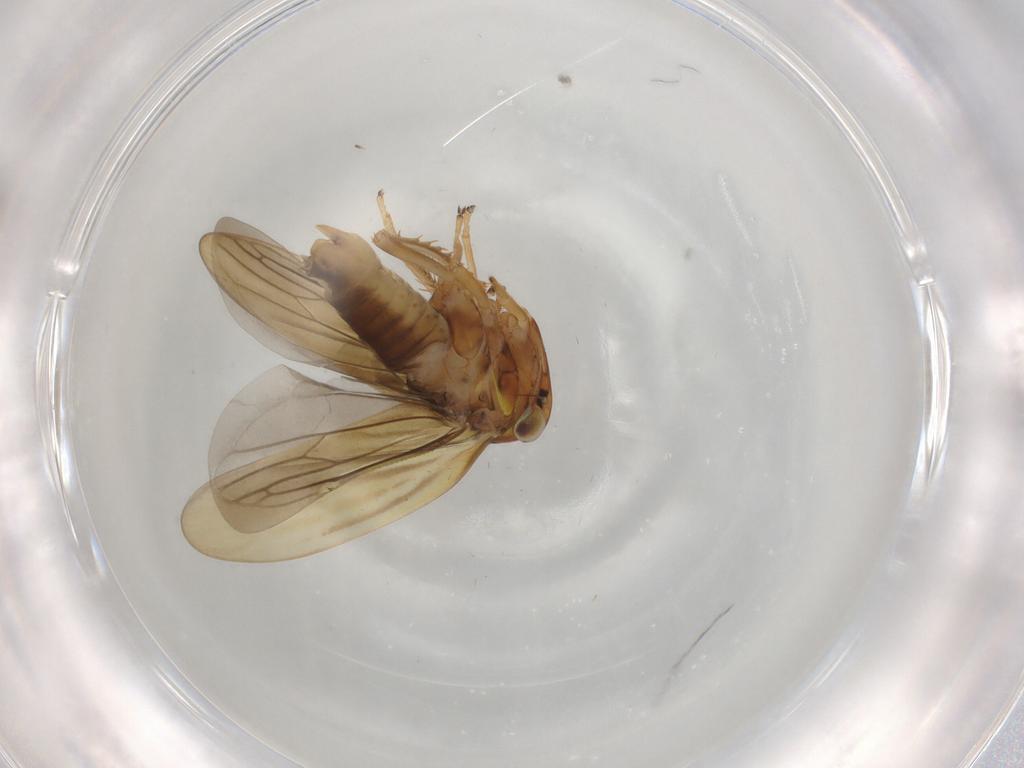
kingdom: Animalia
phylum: Arthropoda
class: Insecta
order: Hemiptera
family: Cicadellidae
